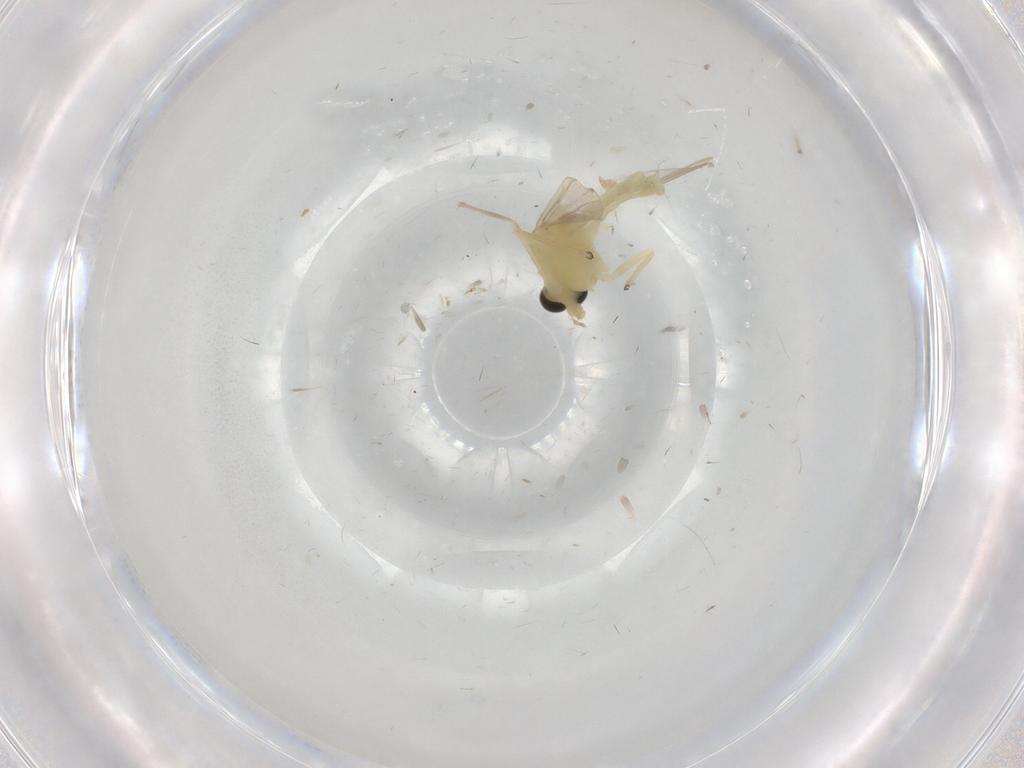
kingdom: Animalia
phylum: Arthropoda
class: Insecta
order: Diptera
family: Chironomidae
